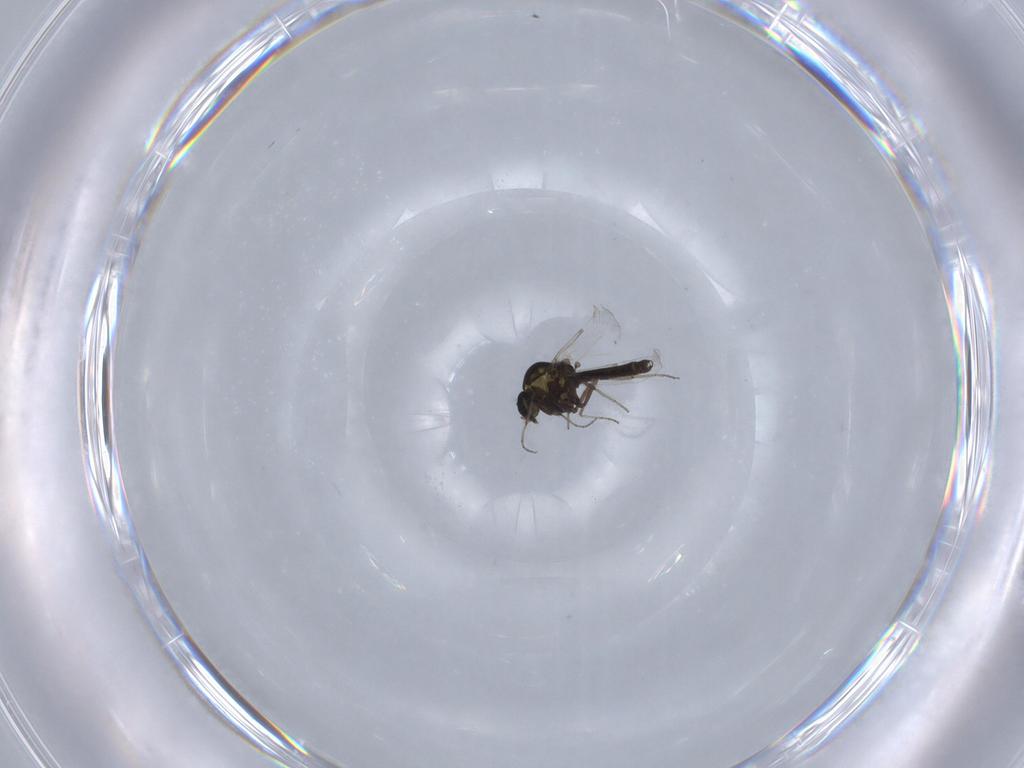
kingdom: Animalia
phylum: Arthropoda
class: Insecta
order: Diptera
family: Ceratopogonidae
